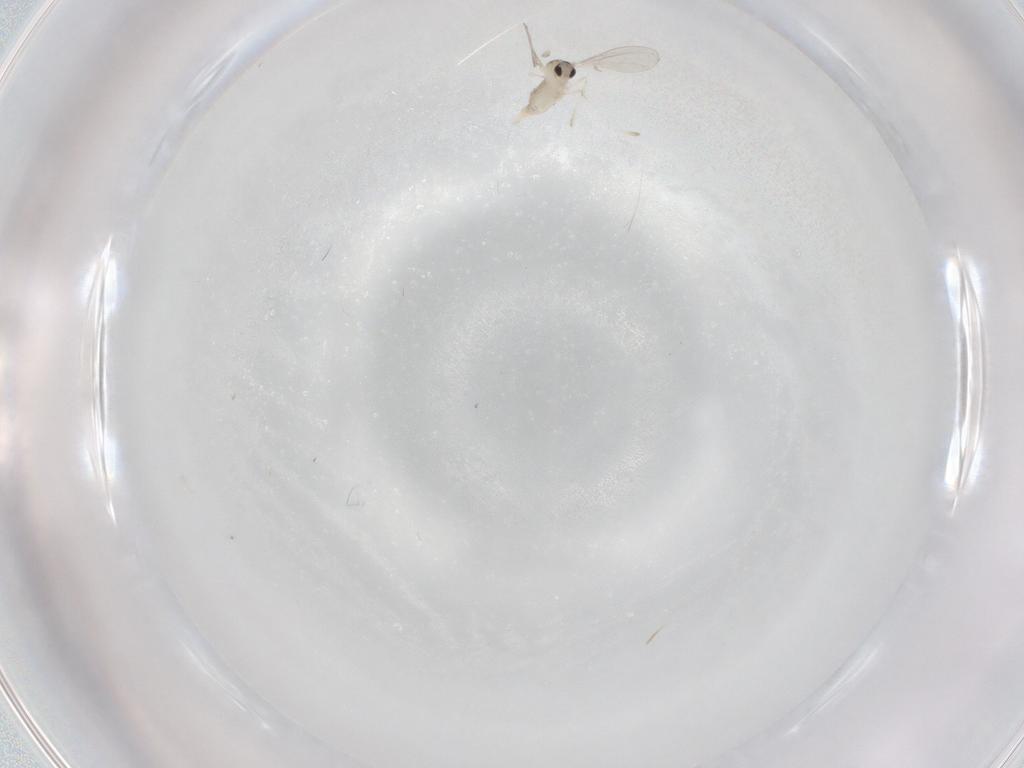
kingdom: Animalia
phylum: Arthropoda
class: Insecta
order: Diptera
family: Cecidomyiidae
